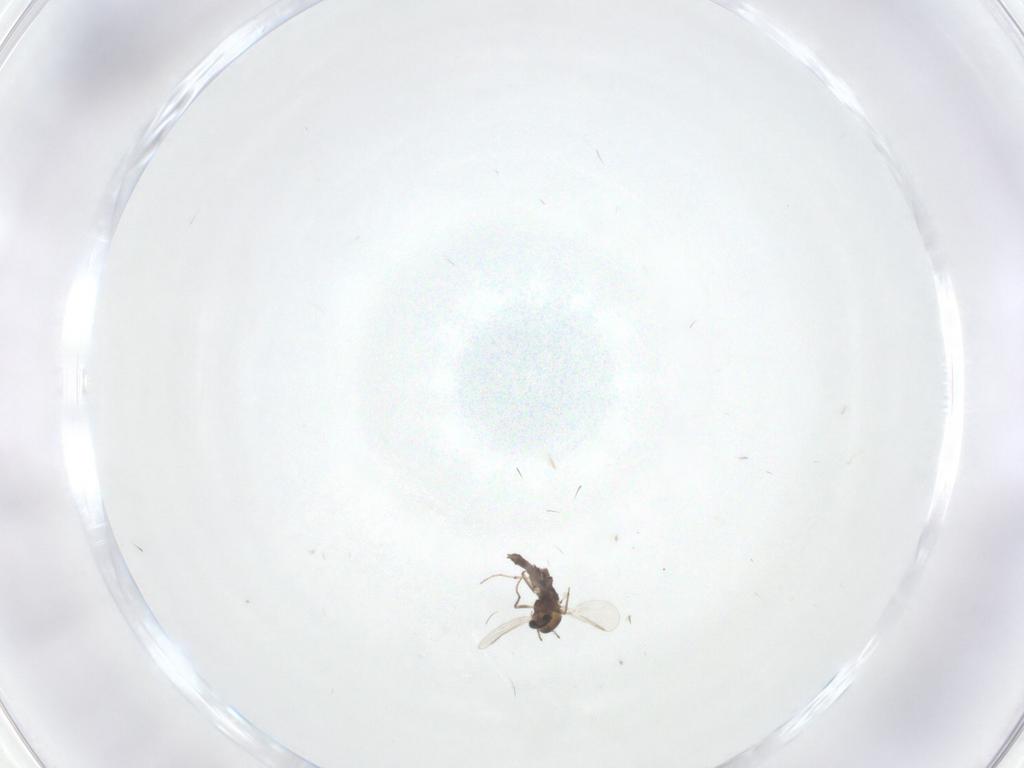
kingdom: Animalia
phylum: Arthropoda
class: Insecta
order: Diptera
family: Chironomidae
